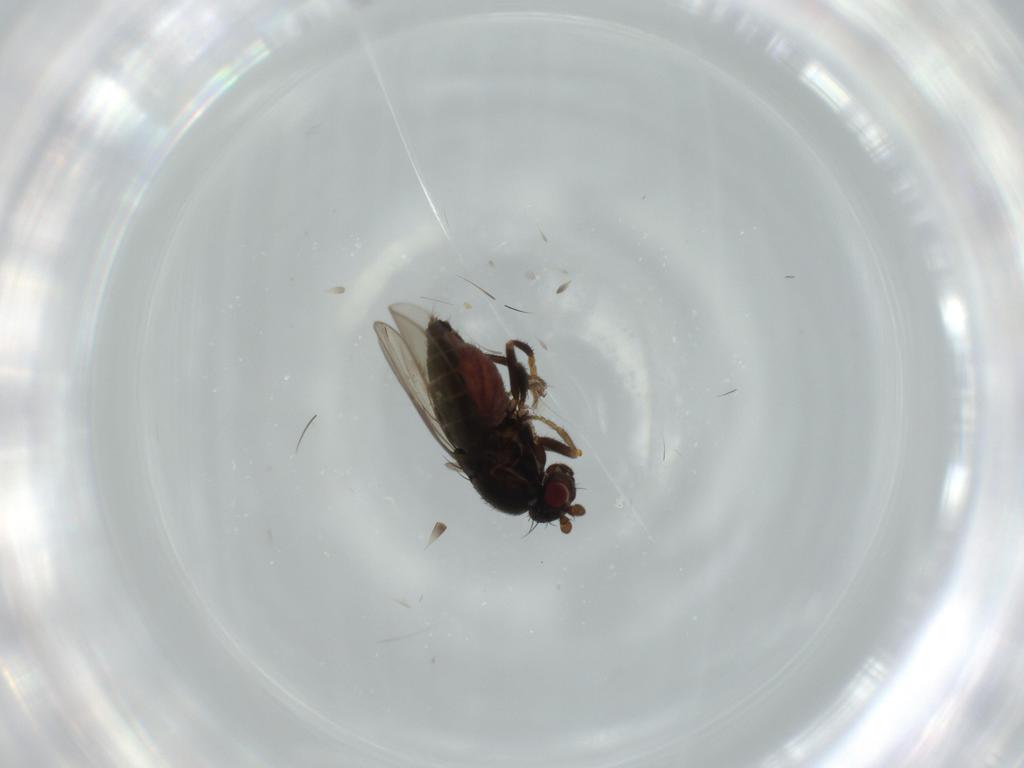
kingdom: Animalia
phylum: Arthropoda
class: Insecta
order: Diptera
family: Sphaeroceridae
